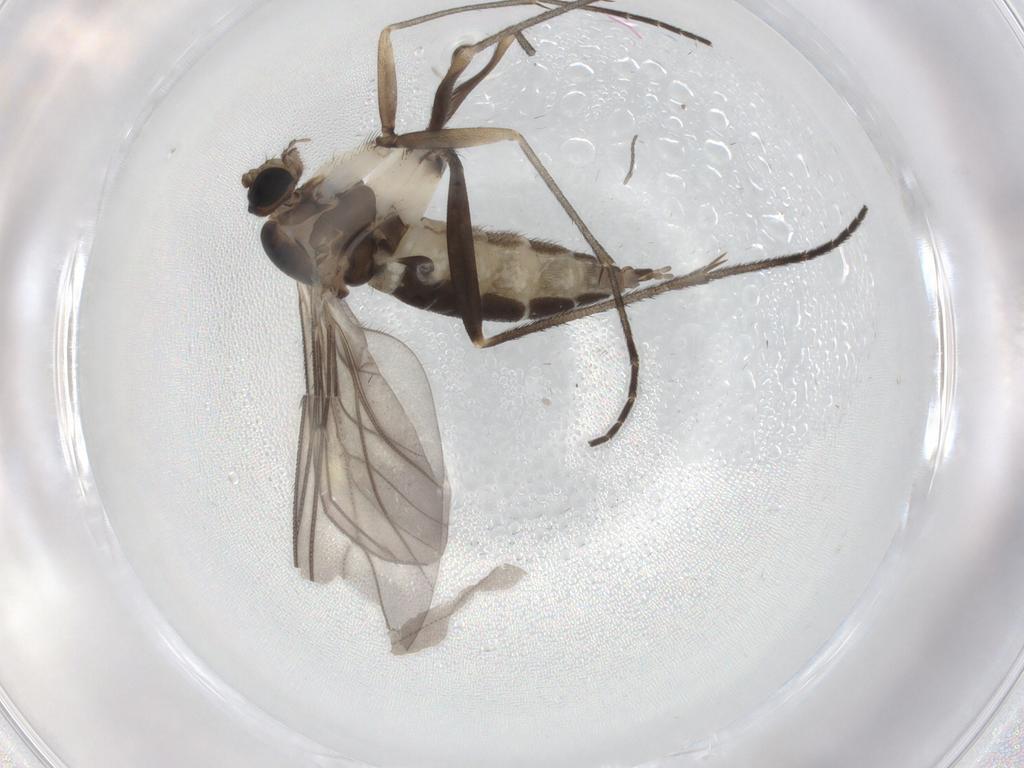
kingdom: Animalia
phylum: Arthropoda
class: Insecta
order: Diptera
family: Sciaridae
